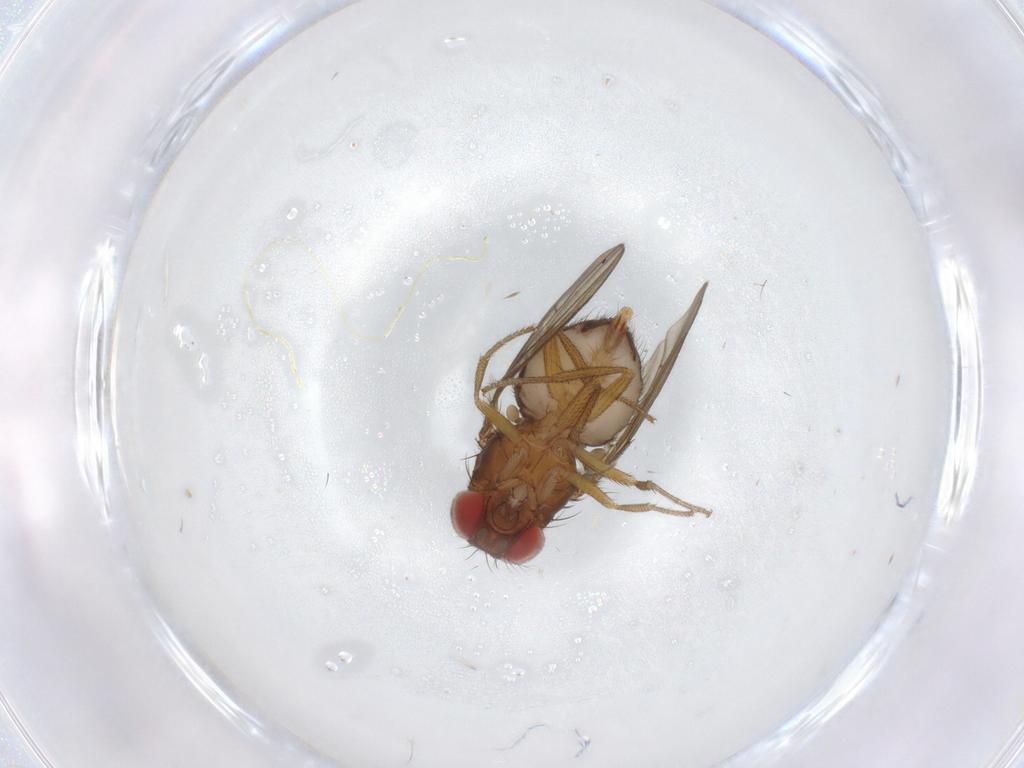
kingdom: Animalia
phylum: Arthropoda
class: Insecta
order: Diptera
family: Drosophilidae
